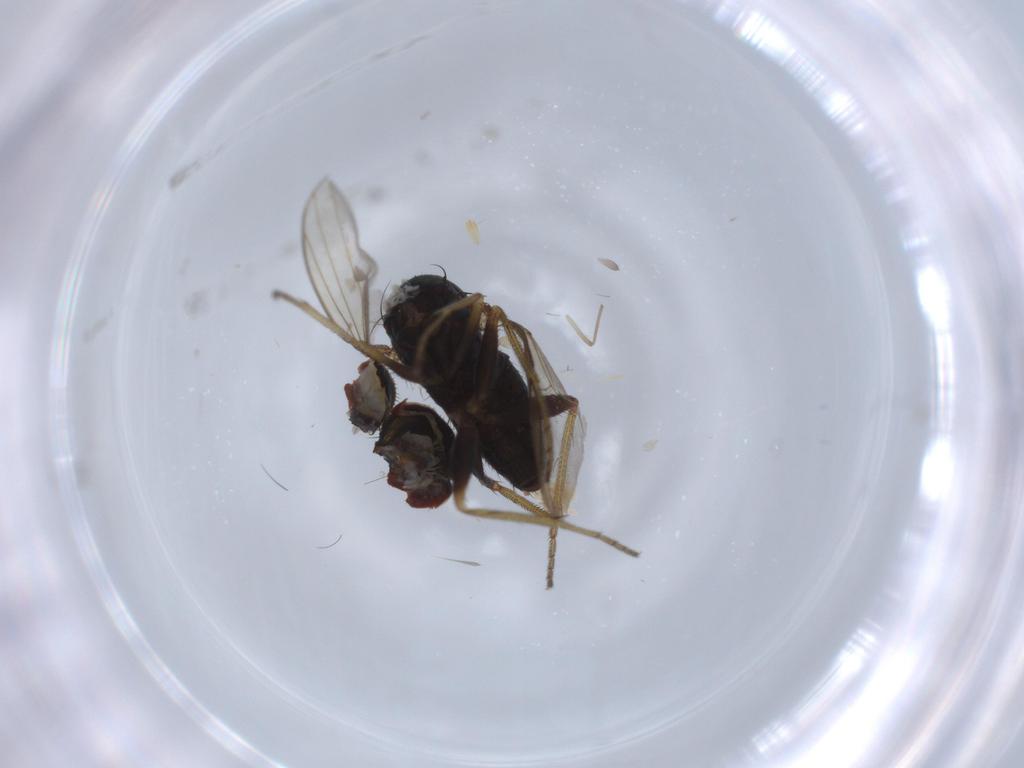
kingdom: Animalia
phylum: Arthropoda
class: Insecta
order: Diptera
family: Dolichopodidae
